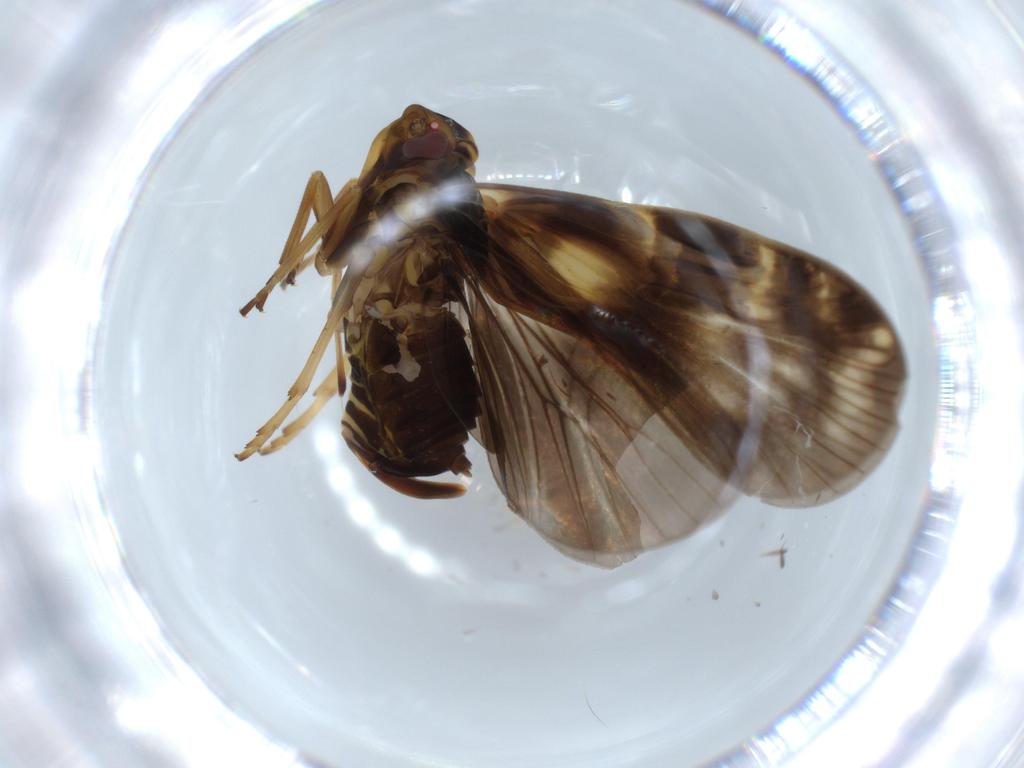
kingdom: Animalia
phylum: Arthropoda
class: Insecta
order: Hemiptera
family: Cixiidae
